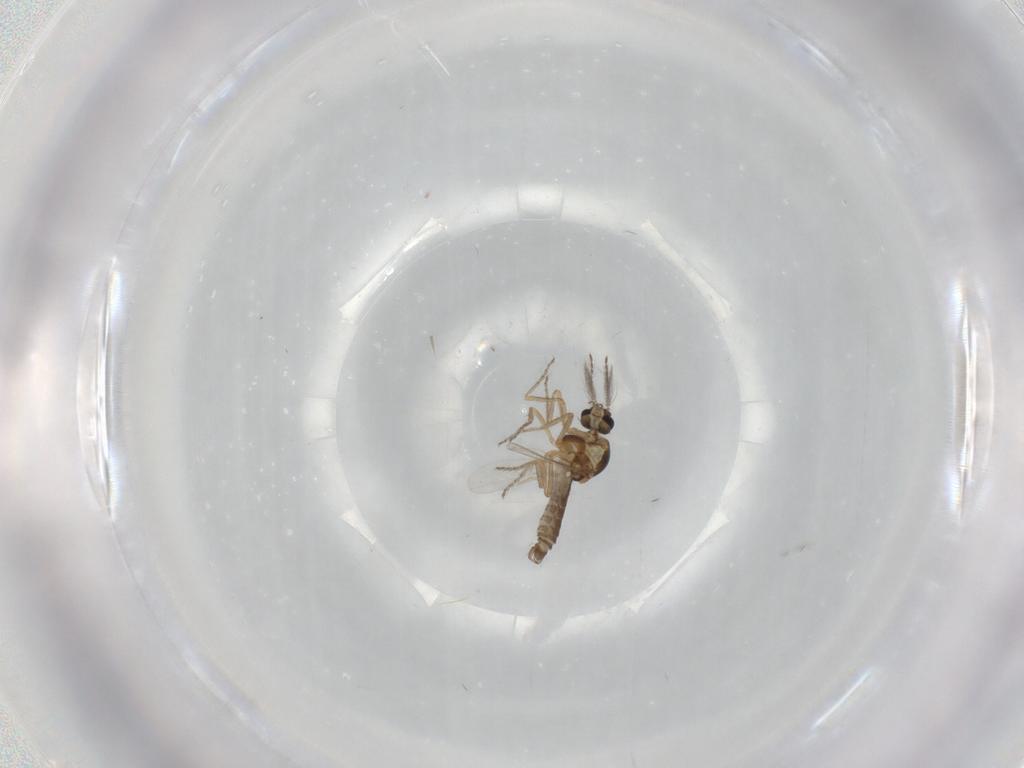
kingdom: Animalia
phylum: Arthropoda
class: Insecta
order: Diptera
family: Ceratopogonidae
